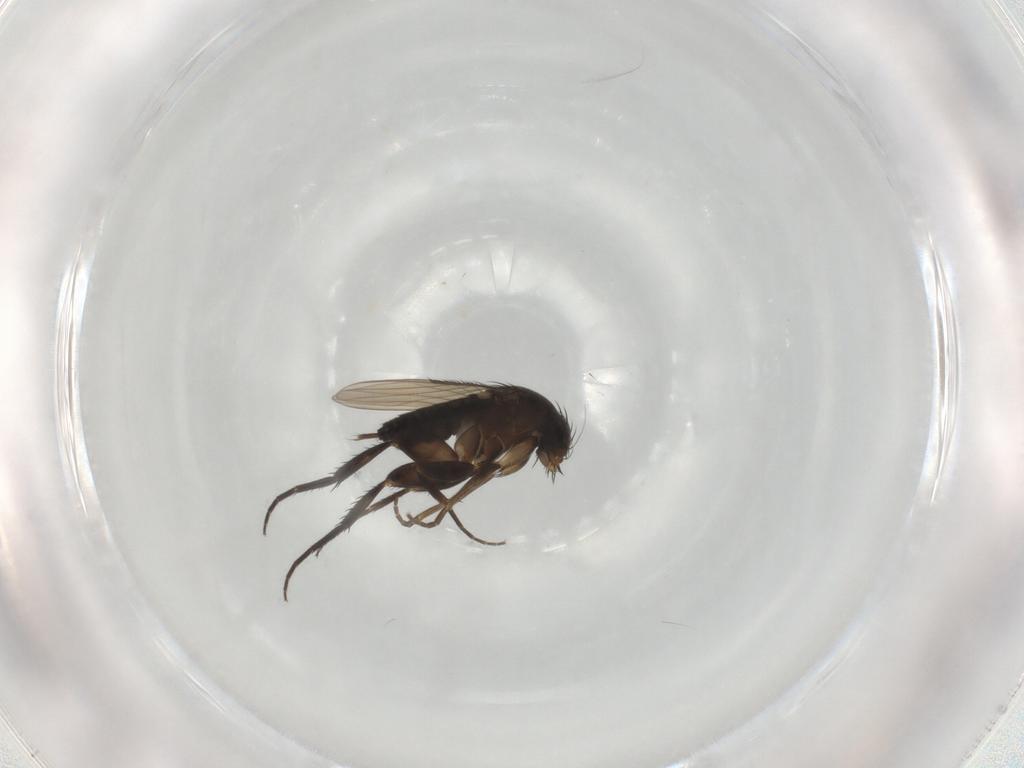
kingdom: Animalia
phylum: Arthropoda
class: Insecta
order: Diptera
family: Phoridae
